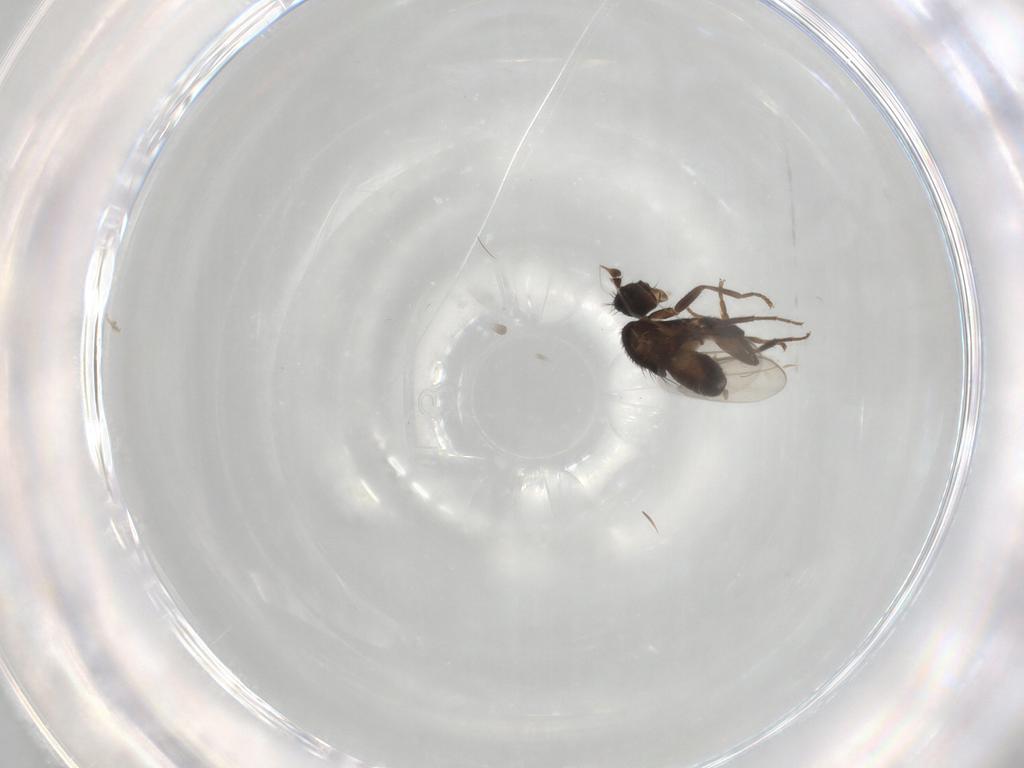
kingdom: Animalia
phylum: Arthropoda
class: Insecta
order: Diptera
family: Sphaeroceridae
